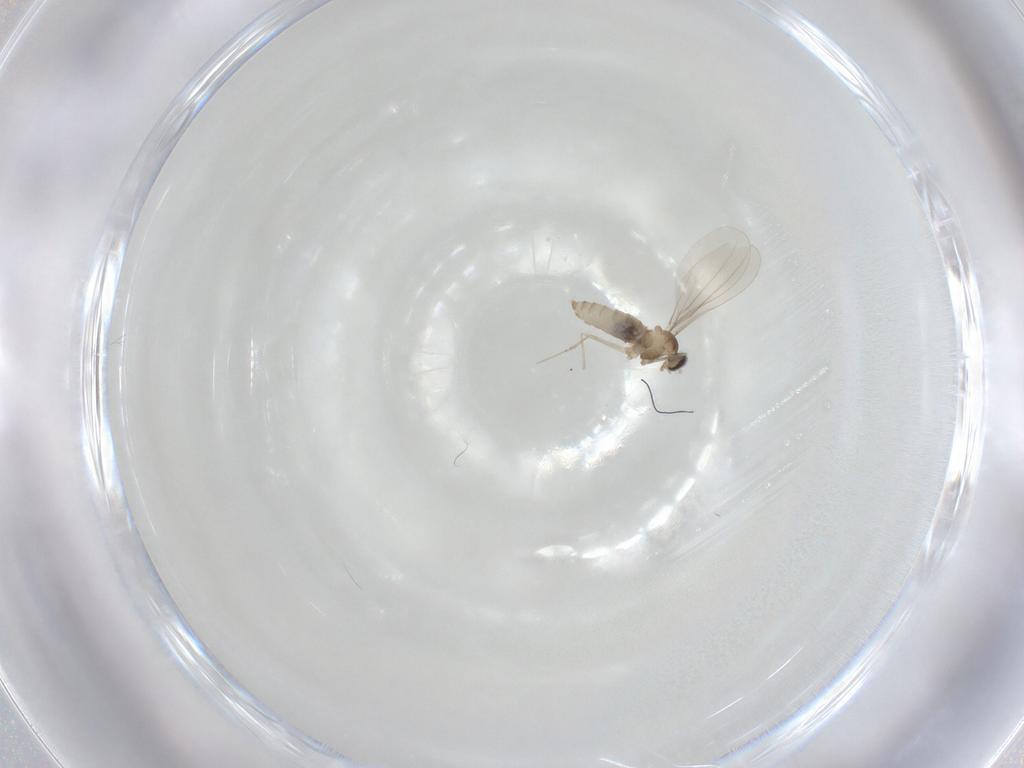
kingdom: Animalia
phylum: Arthropoda
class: Insecta
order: Diptera
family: Cecidomyiidae
